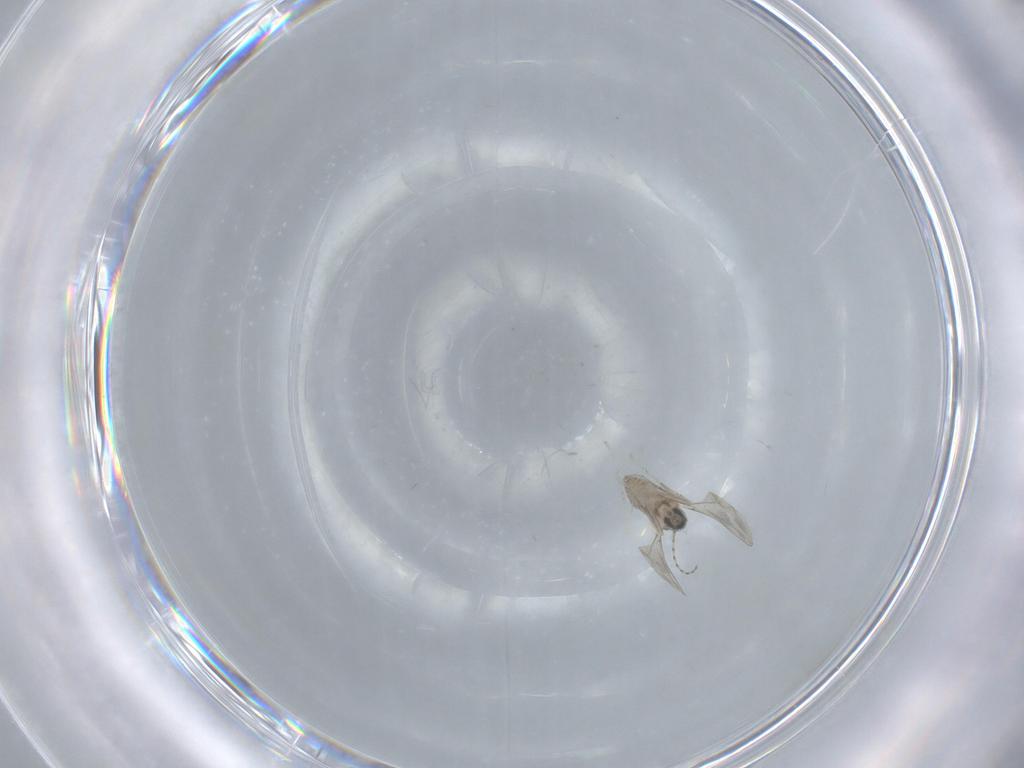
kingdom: Animalia
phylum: Arthropoda
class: Insecta
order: Diptera
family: Cecidomyiidae
